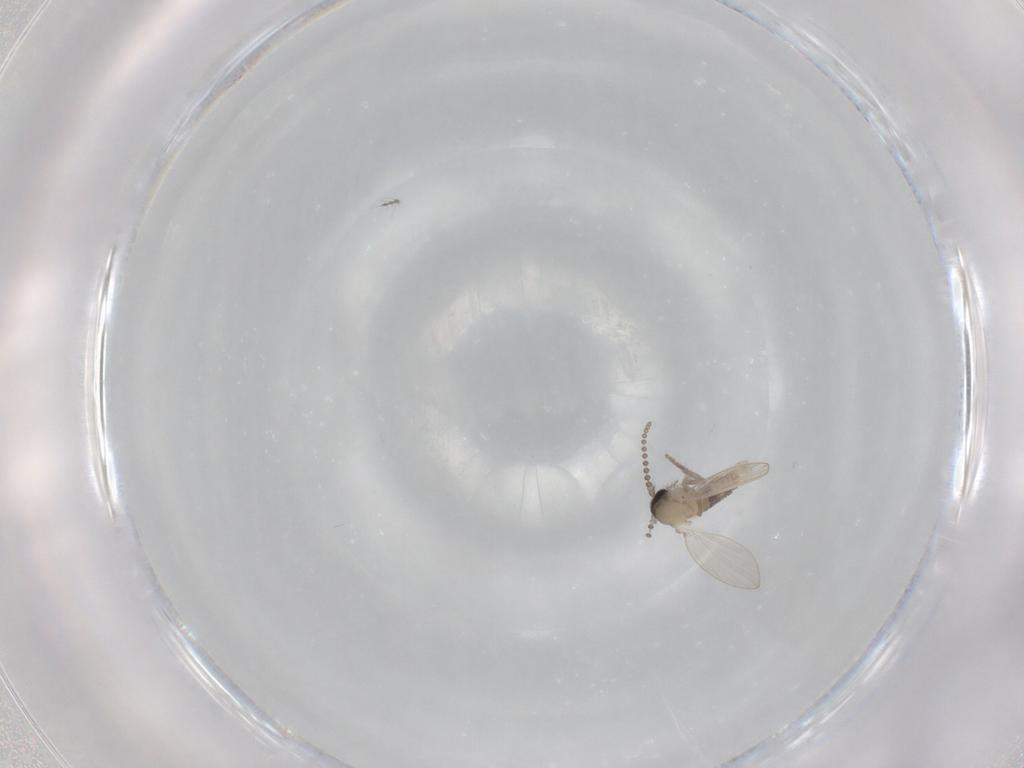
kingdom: Animalia
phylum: Arthropoda
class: Insecta
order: Diptera
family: Psychodidae
